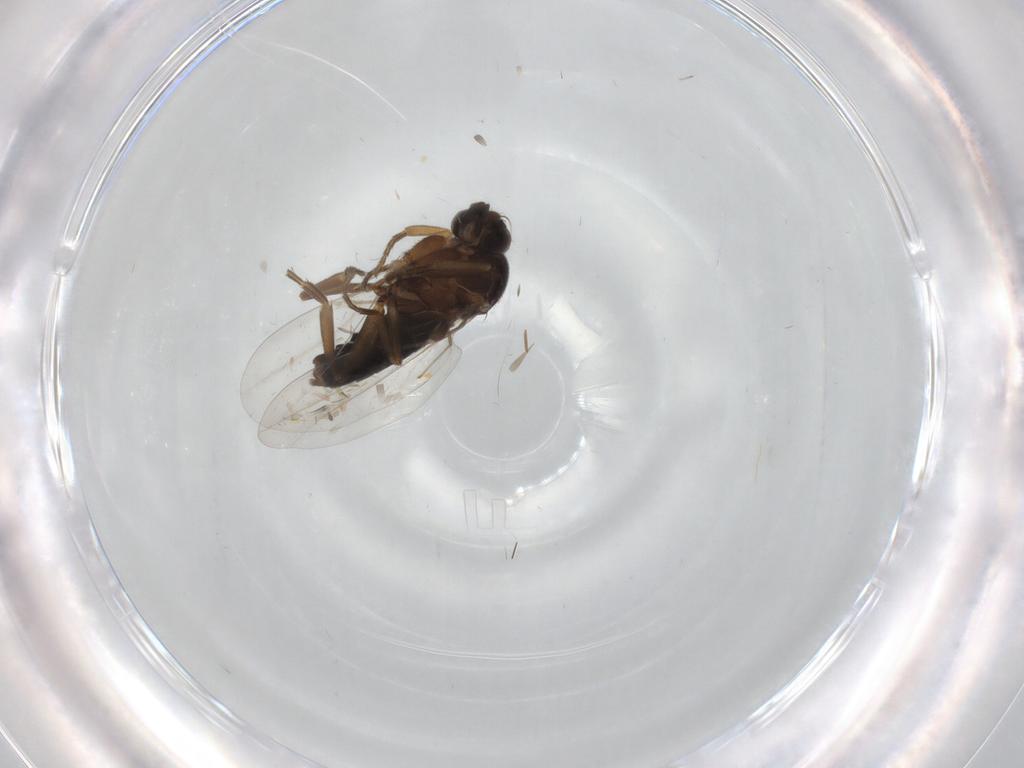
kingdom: Animalia
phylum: Arthropoda
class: Insecta
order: Diptera
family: Chironomidae
